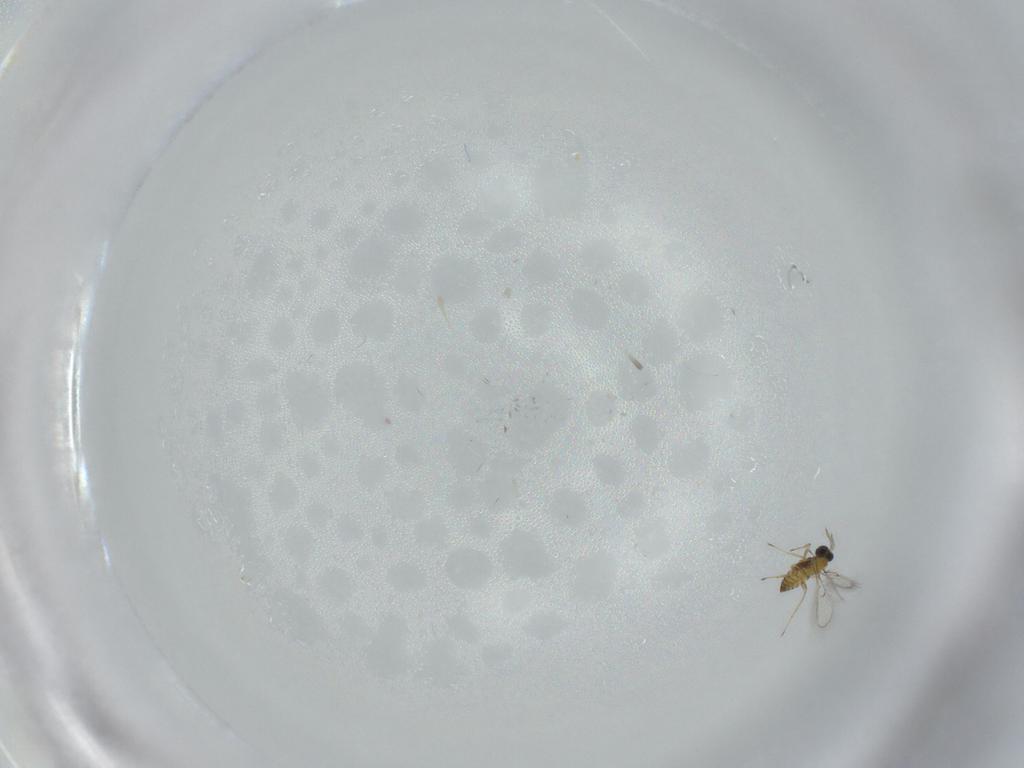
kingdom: Animalia
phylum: Arthropoda
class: Insecta
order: Hymenoptera
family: Trichogrammatidae
